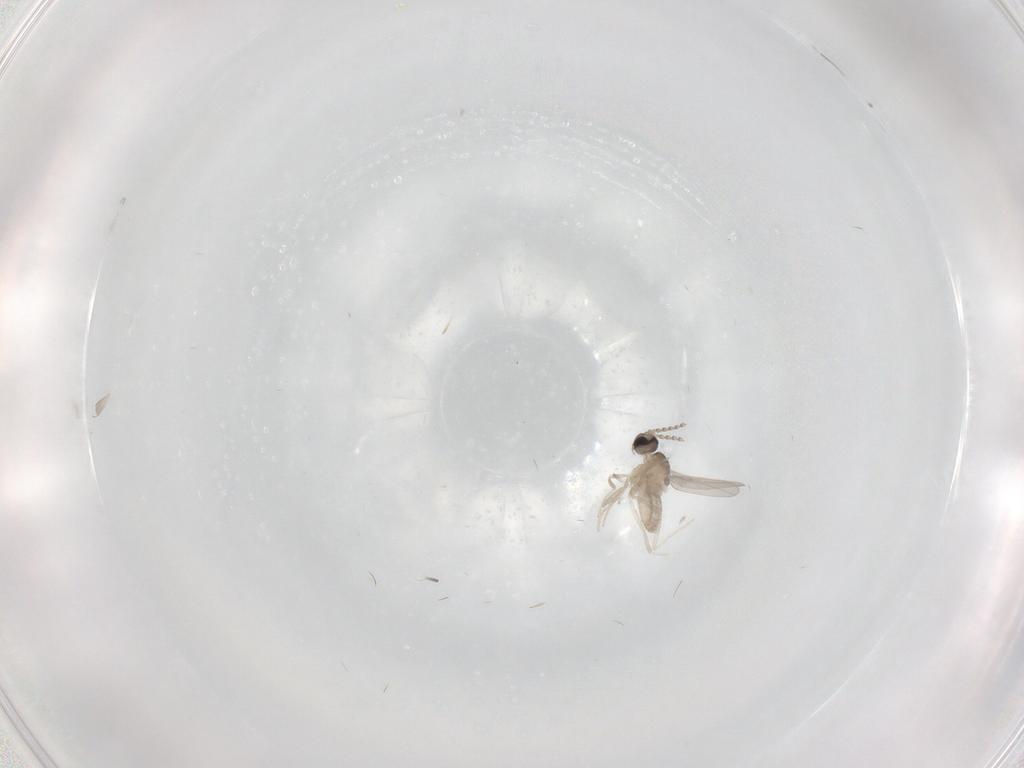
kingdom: Animalia
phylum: Arthropoda
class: Insecta
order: Diptera
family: Cecidomyiidae
